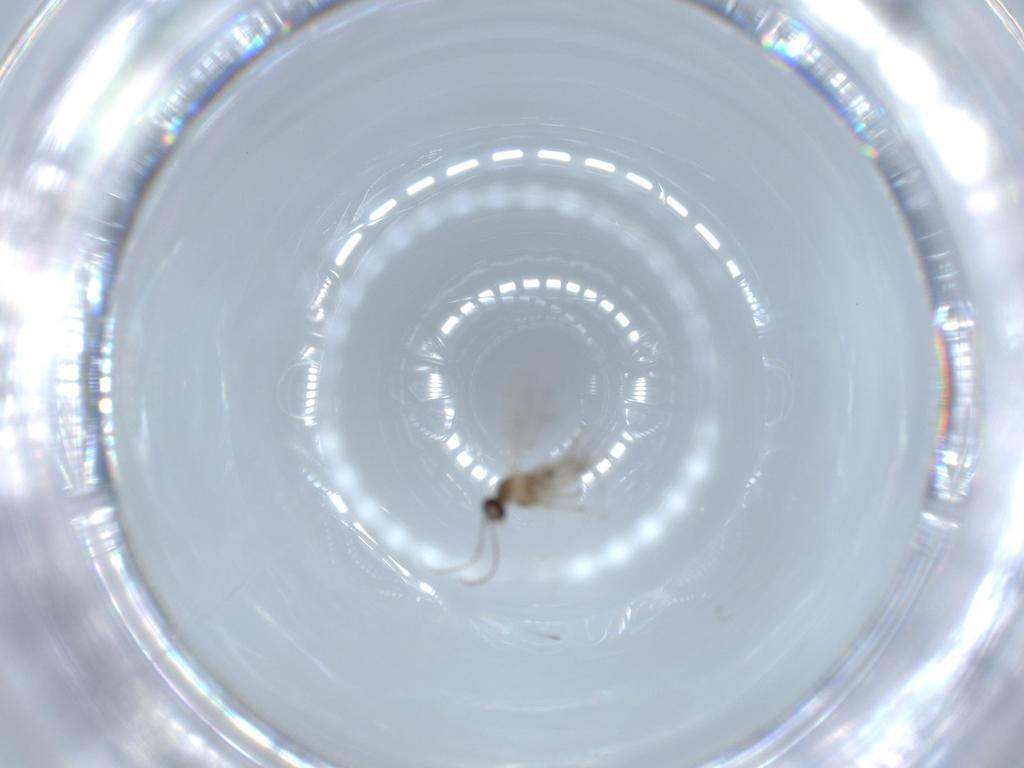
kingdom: Animalia
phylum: Arthropoda
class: Insecta
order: Diptera
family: Cecidomyiidae
